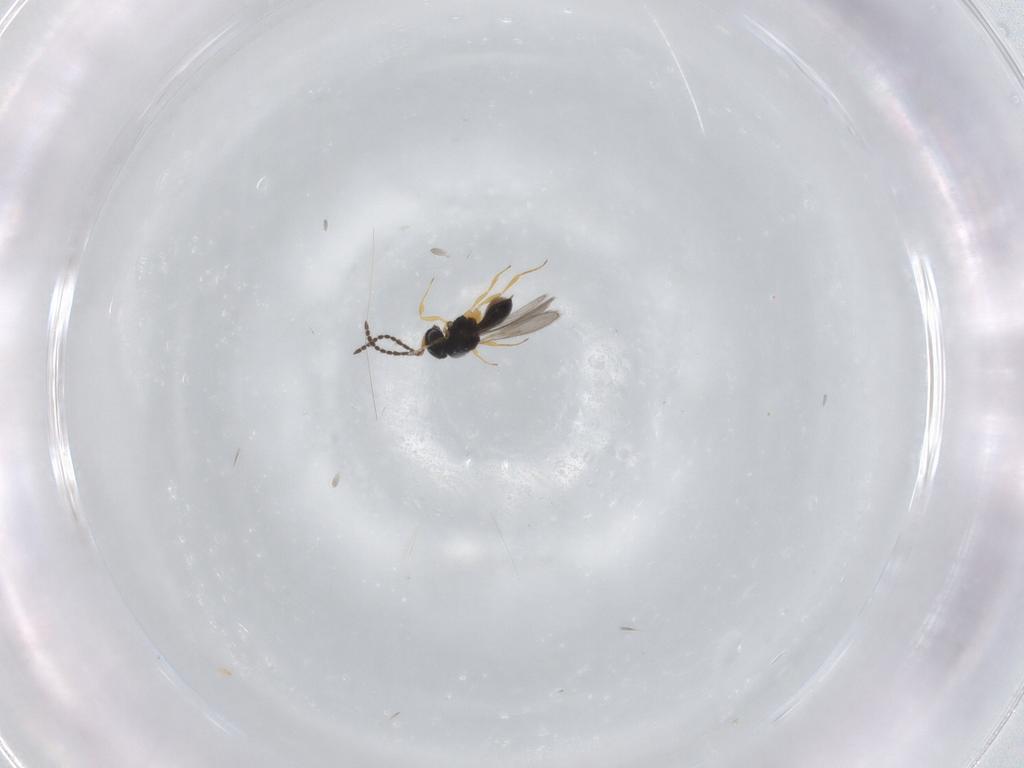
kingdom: Animalia
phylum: Arthropoda
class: Insecta
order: Hymenoptera
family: Scelionidae
